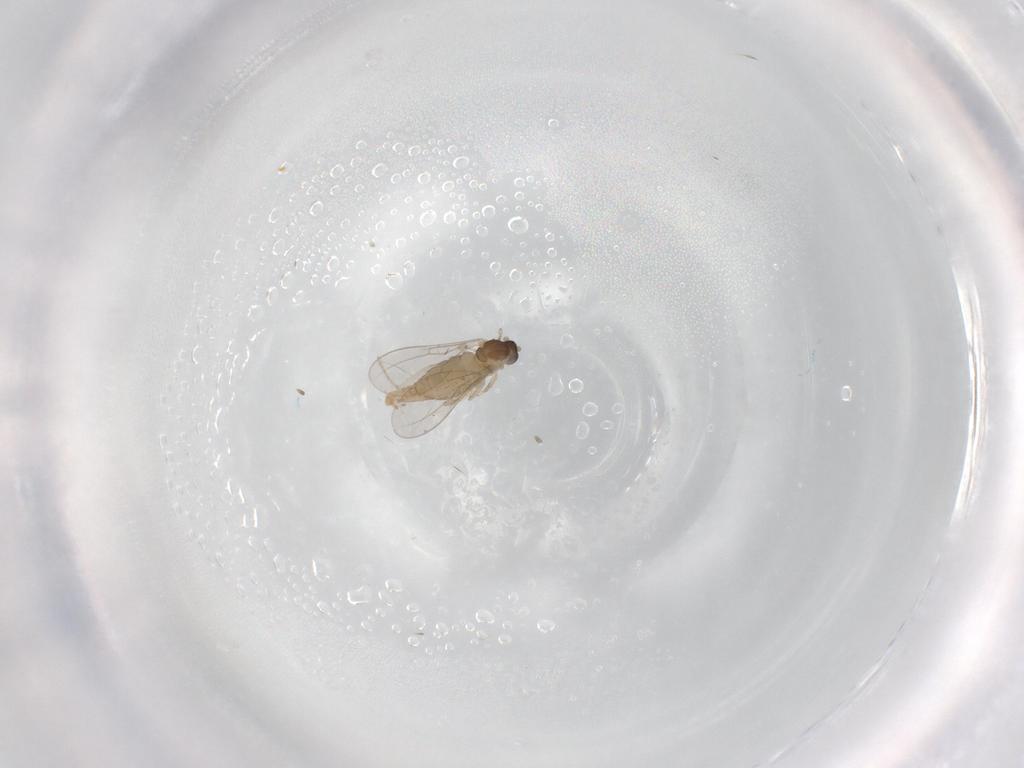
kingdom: Animalia
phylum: Arthropoda
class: Insecta
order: Diptera
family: Cecidomyiidae
